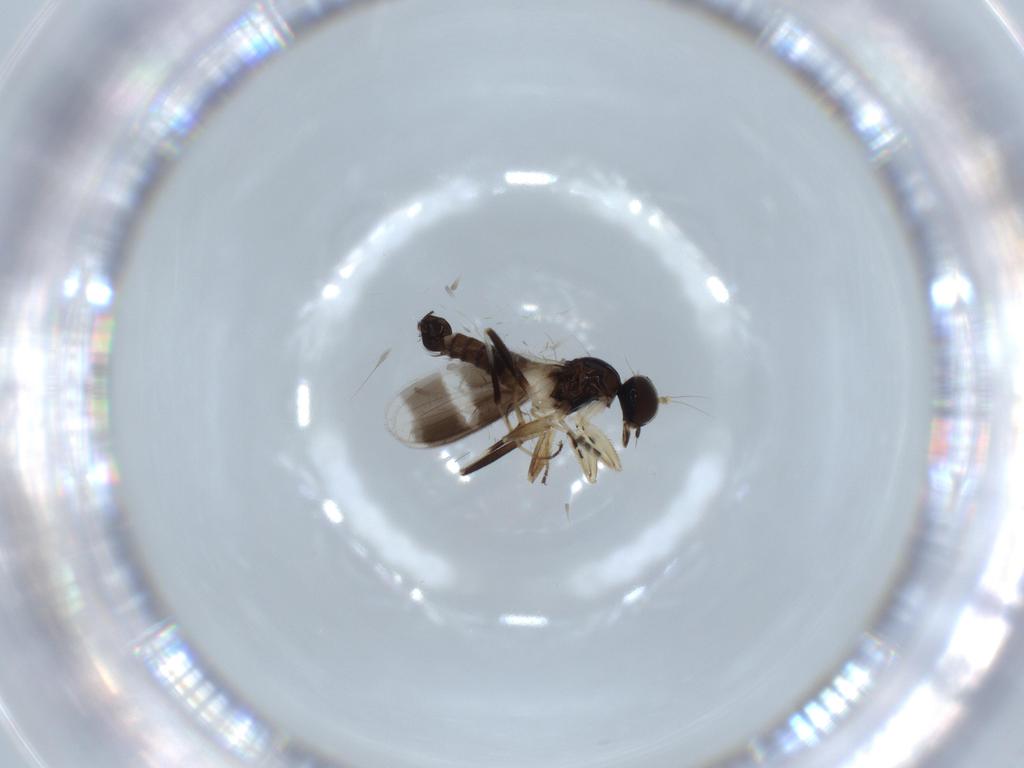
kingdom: Animalia
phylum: Arthropoda
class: Insecta
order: Diptera
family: Hybotidae
